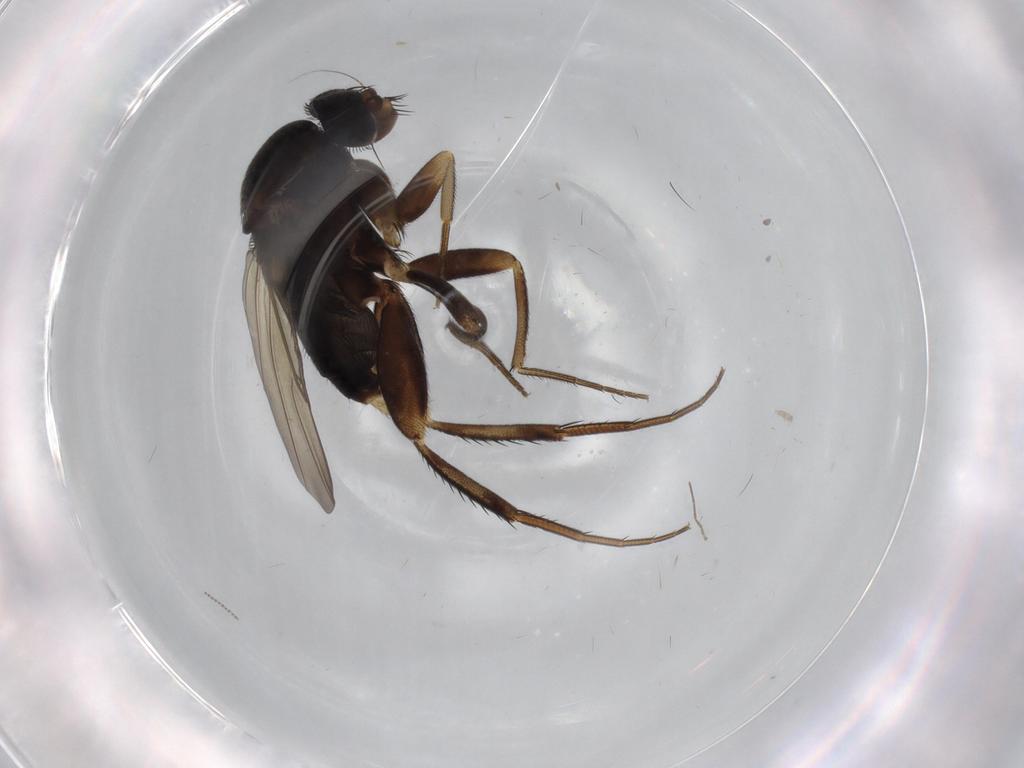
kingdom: Animalia
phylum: Arthropoda
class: Insecta
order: Diptera
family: Phoridae
